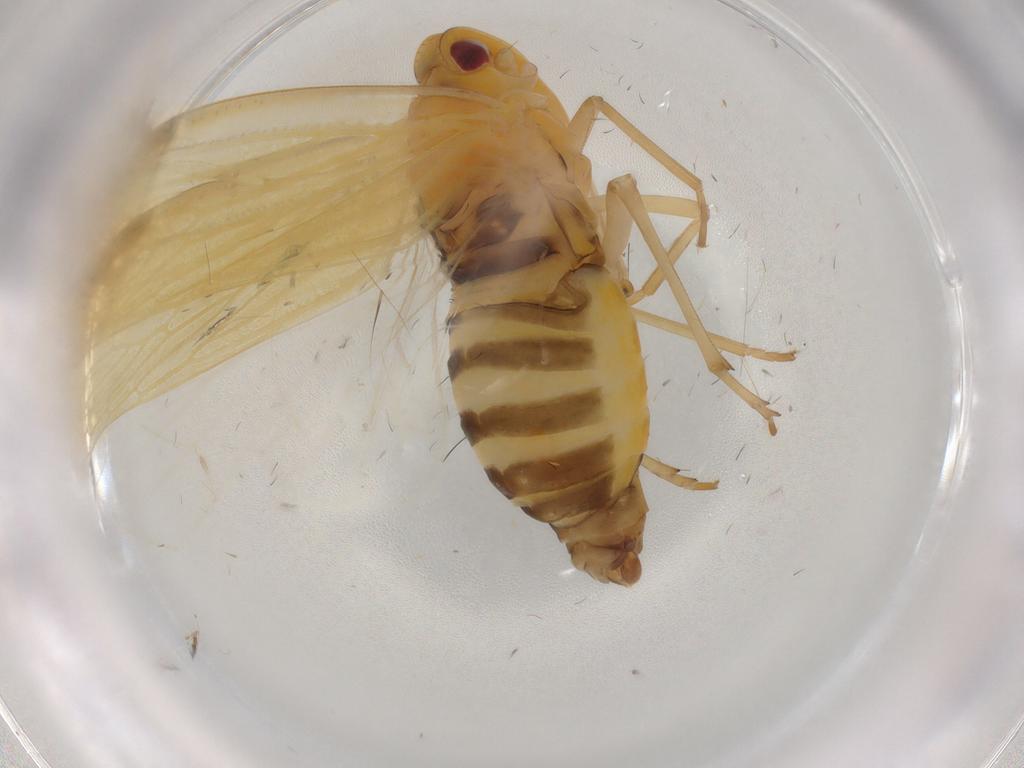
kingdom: Animalia
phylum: Arthropoda
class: Insecta
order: Hemiptera
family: Derbidae
